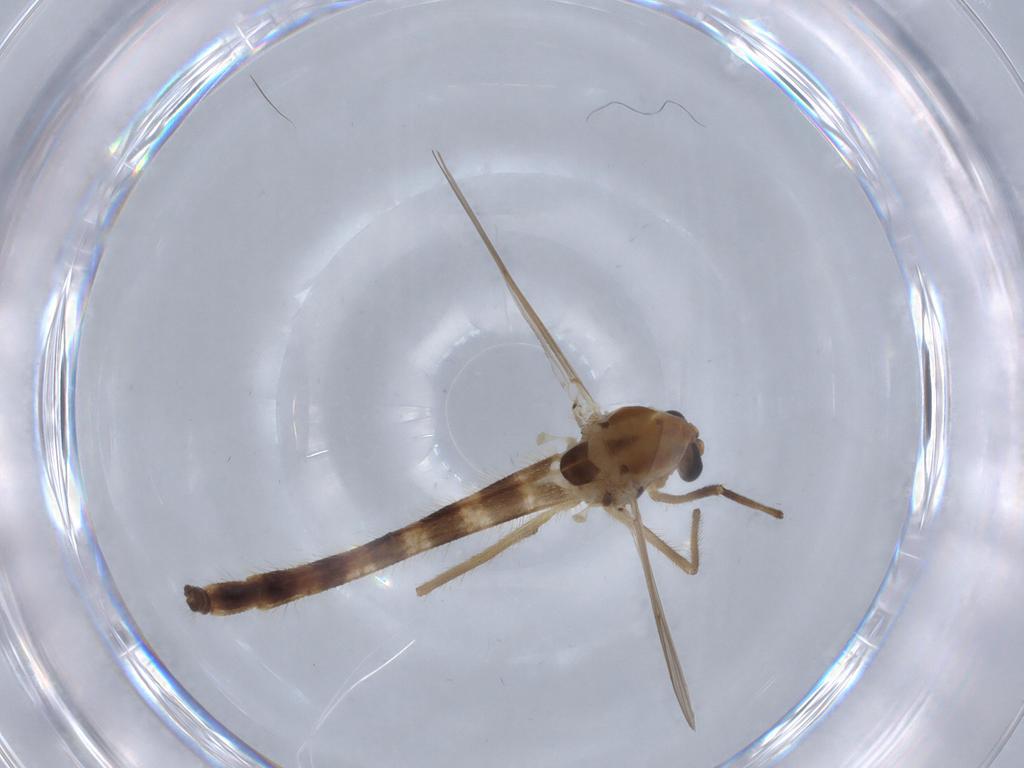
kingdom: Animalia
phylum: Arthropoda
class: Insecta
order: Diptera
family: Chironomidae
